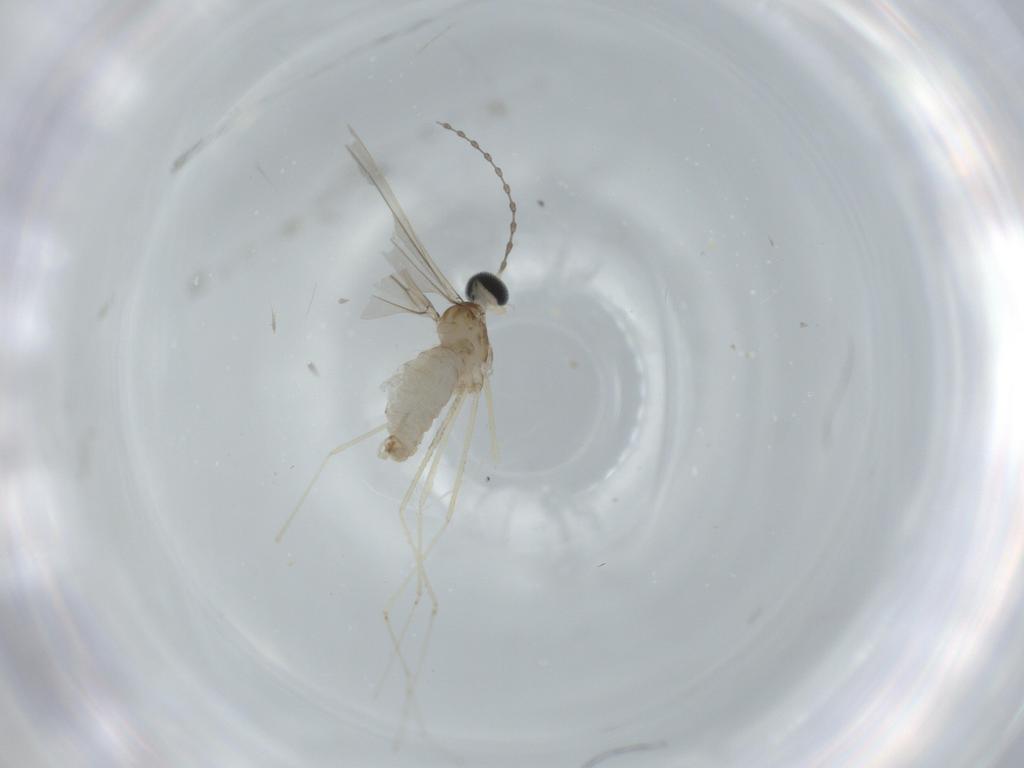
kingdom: Animalia
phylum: Arthropoda
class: Insecta
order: Diptera
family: Cecidomyiidae
